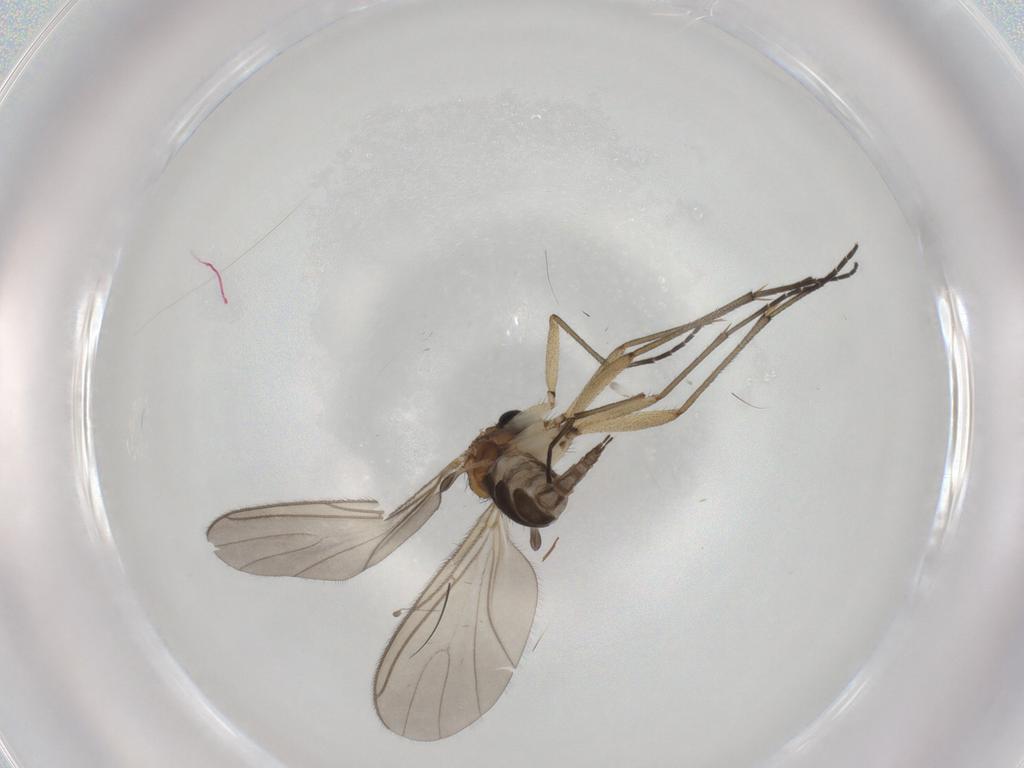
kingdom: Animalia
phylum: Arthropoda
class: Insecta
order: Diptera
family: Sciaridae
